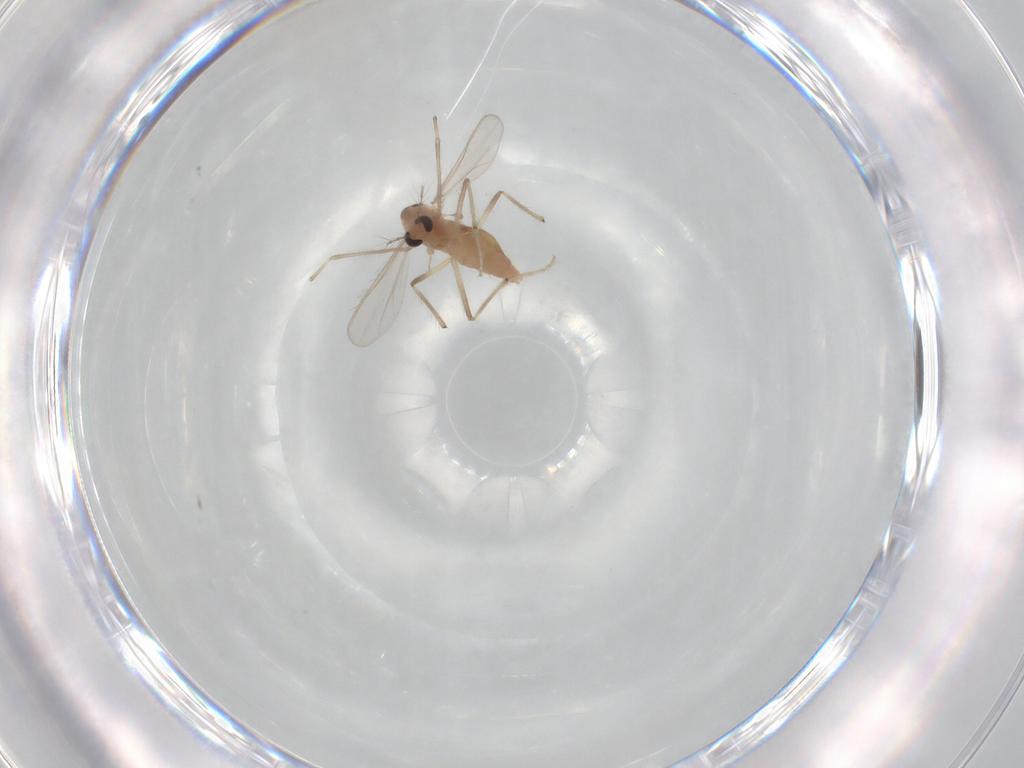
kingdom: Animalia
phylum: Arthropoda
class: Insecta
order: Diptera
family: Chironomidae
